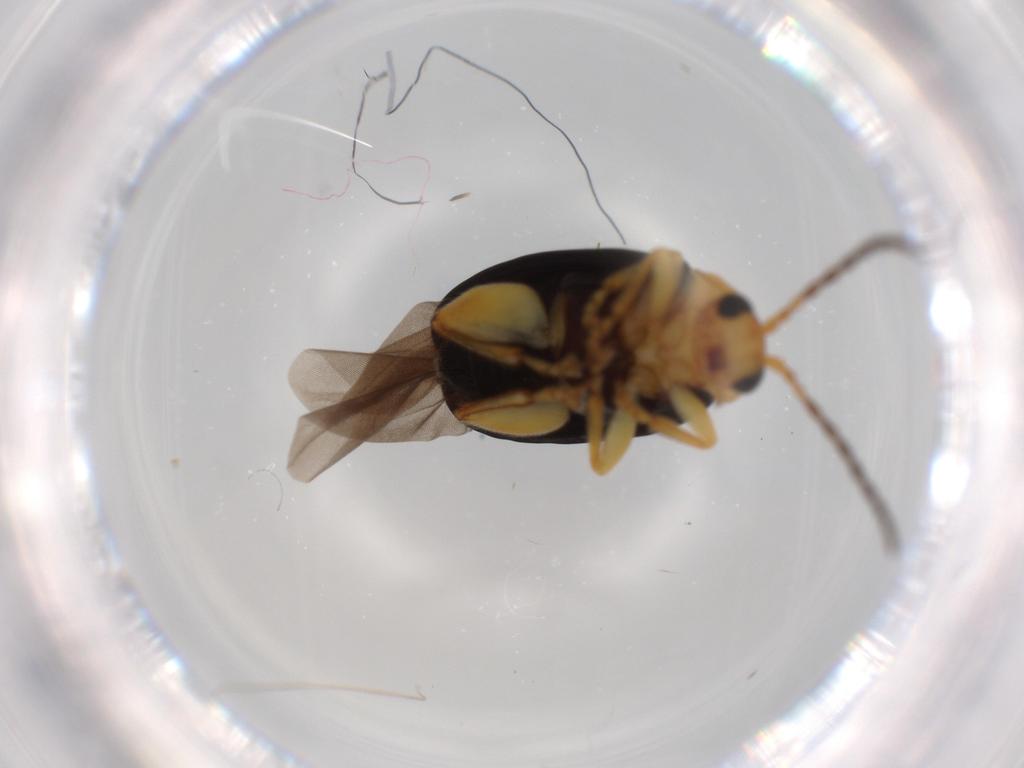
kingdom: Animalia
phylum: Arthropoda
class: Insecta
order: Coleoptera
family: Chrysomelidae
